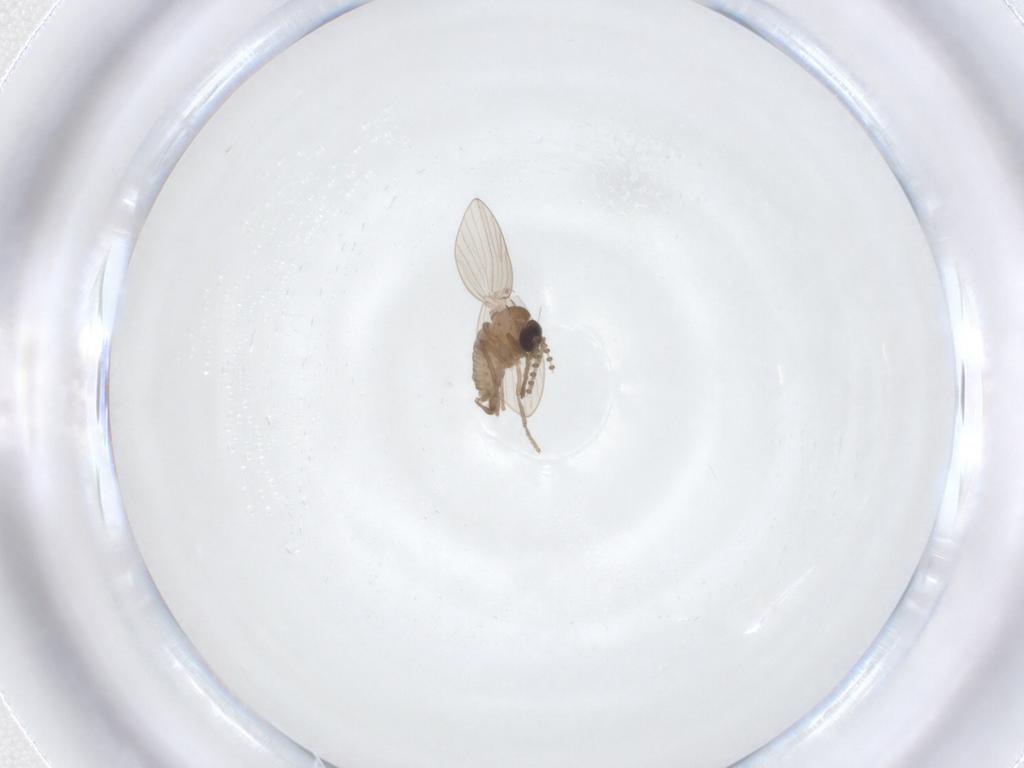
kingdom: Animalia
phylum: Arthropoda
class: Insecta
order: Diptera
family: Psychodidae
